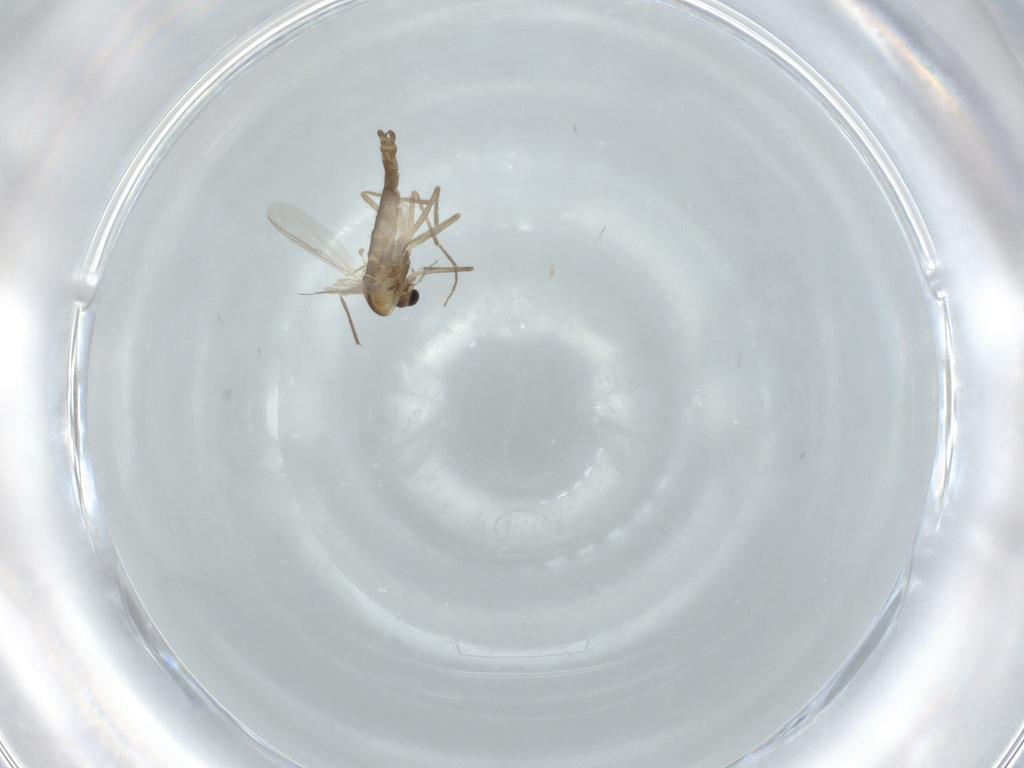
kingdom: Animalia
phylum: Arthropoda
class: Insecta
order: Diptera
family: Chironomidae
